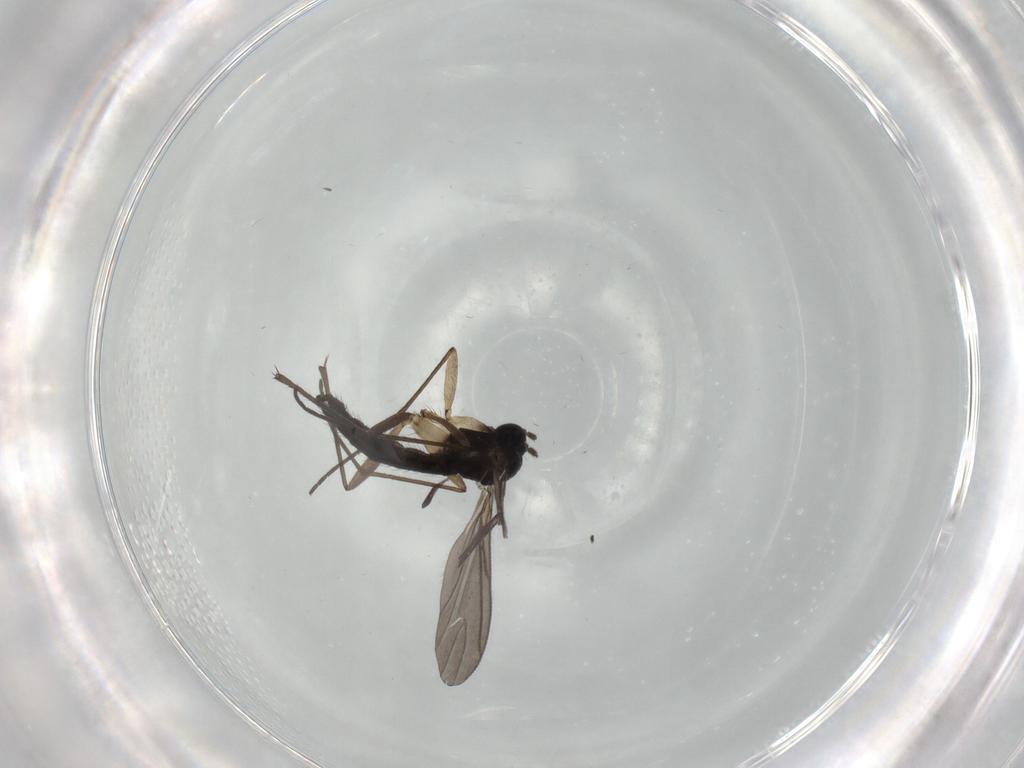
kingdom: Animalia
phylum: Arthropoda
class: Insecta
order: Diptera
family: Sciaridae
